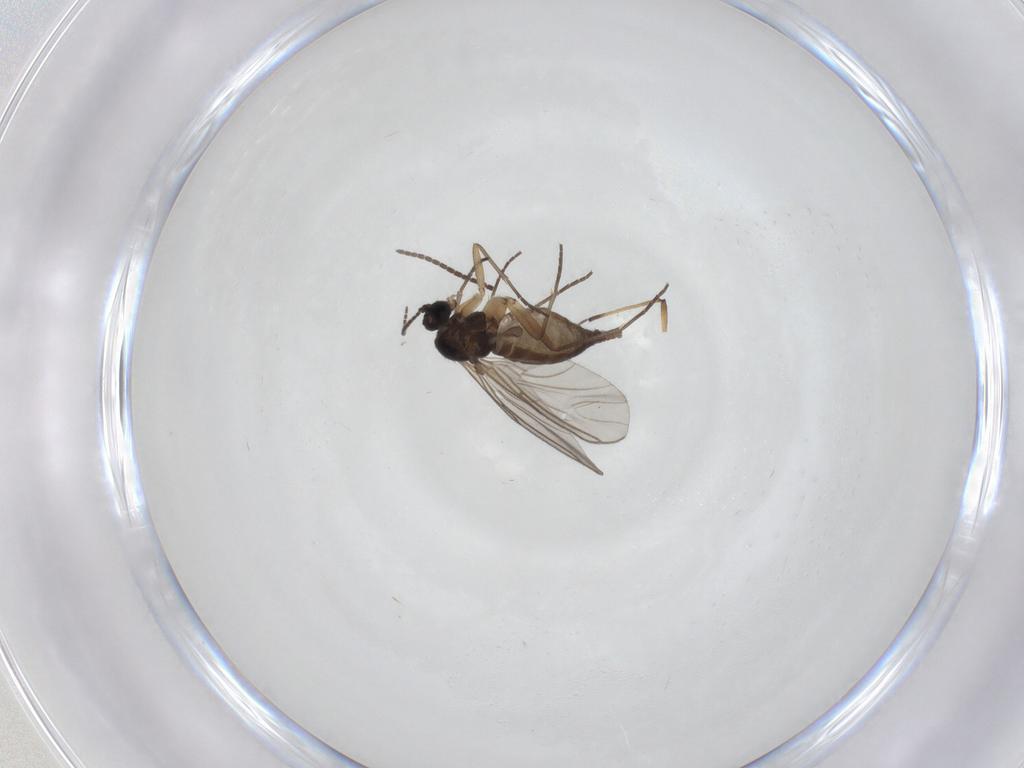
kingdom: Animalia
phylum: Arthropoda
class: Insecta
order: Diptera
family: Sciaridae
